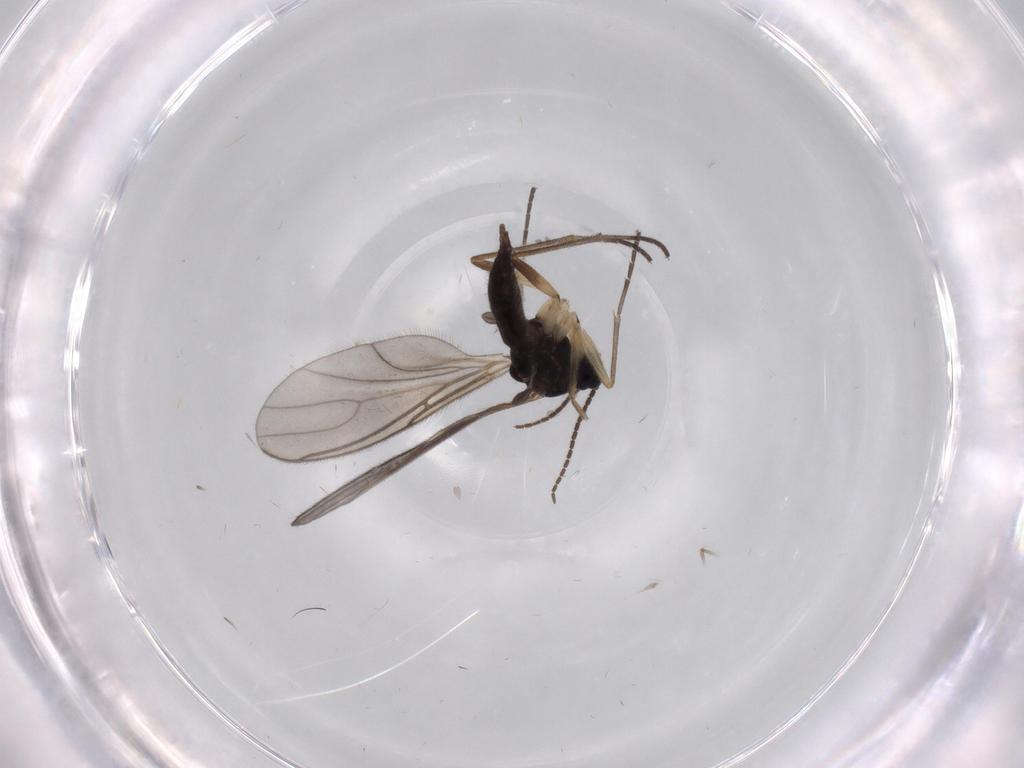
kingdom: Animalia
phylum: Arthropoda
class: Insecta
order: Diptera
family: Sciaridae
